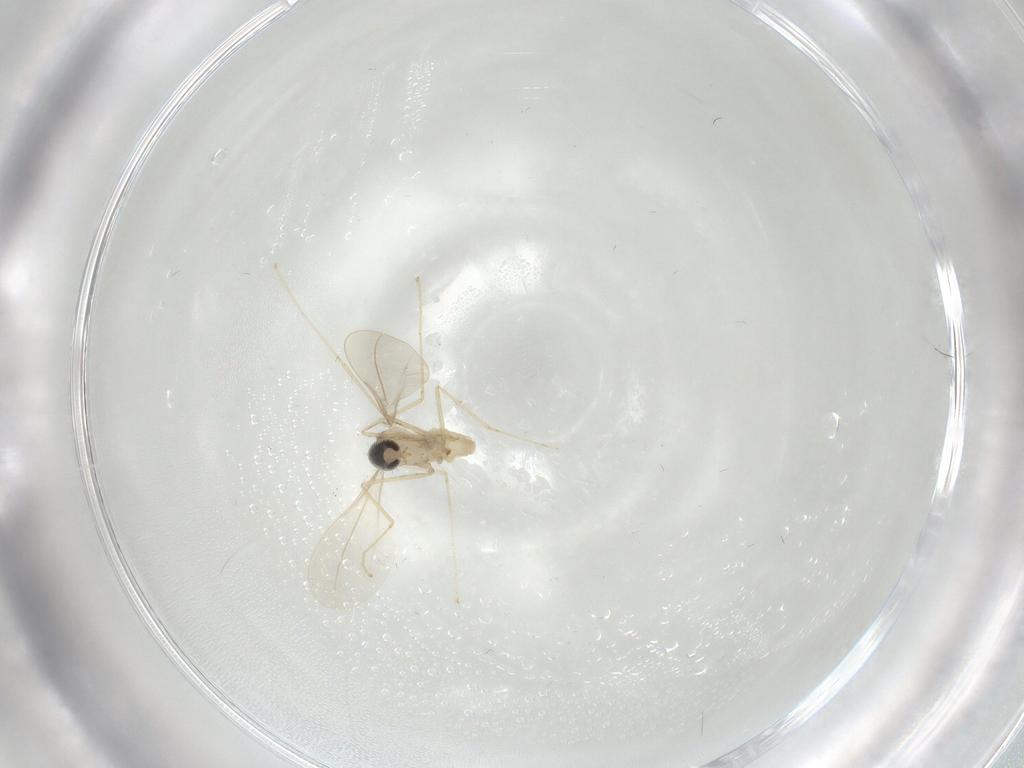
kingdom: Animalia
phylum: Arthropoda
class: Insecta
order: Diptera
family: Cecidomyiidae
